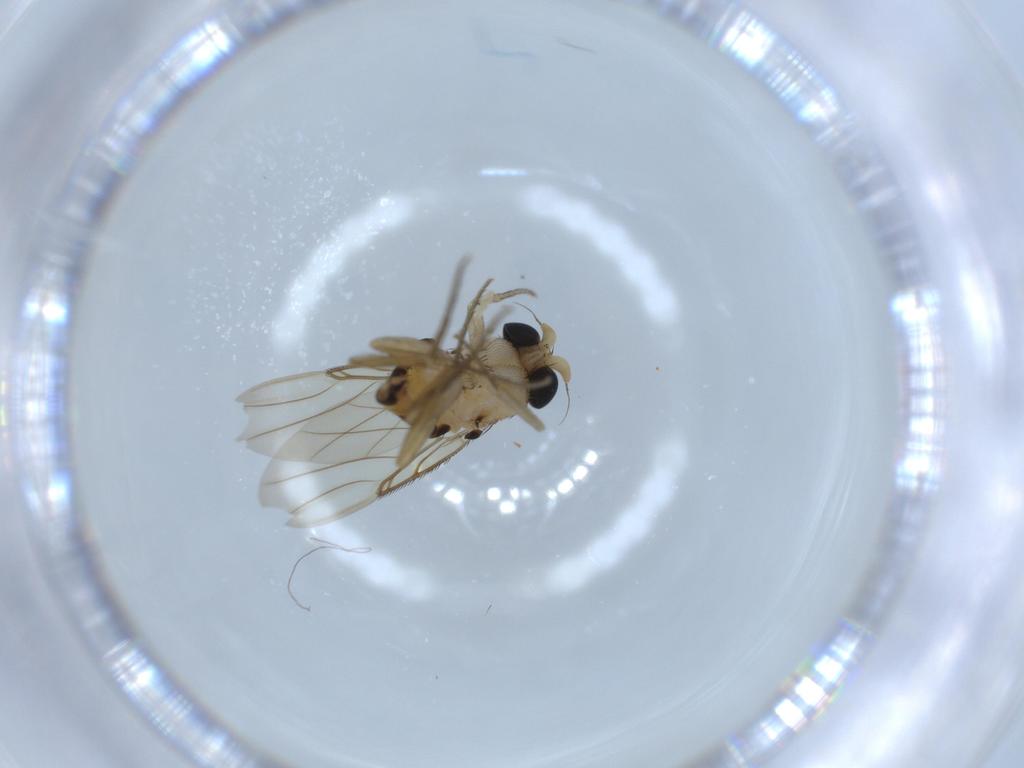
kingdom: Animalia
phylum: Arthropoda
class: Insecta
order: Diptera
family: Phoridae
